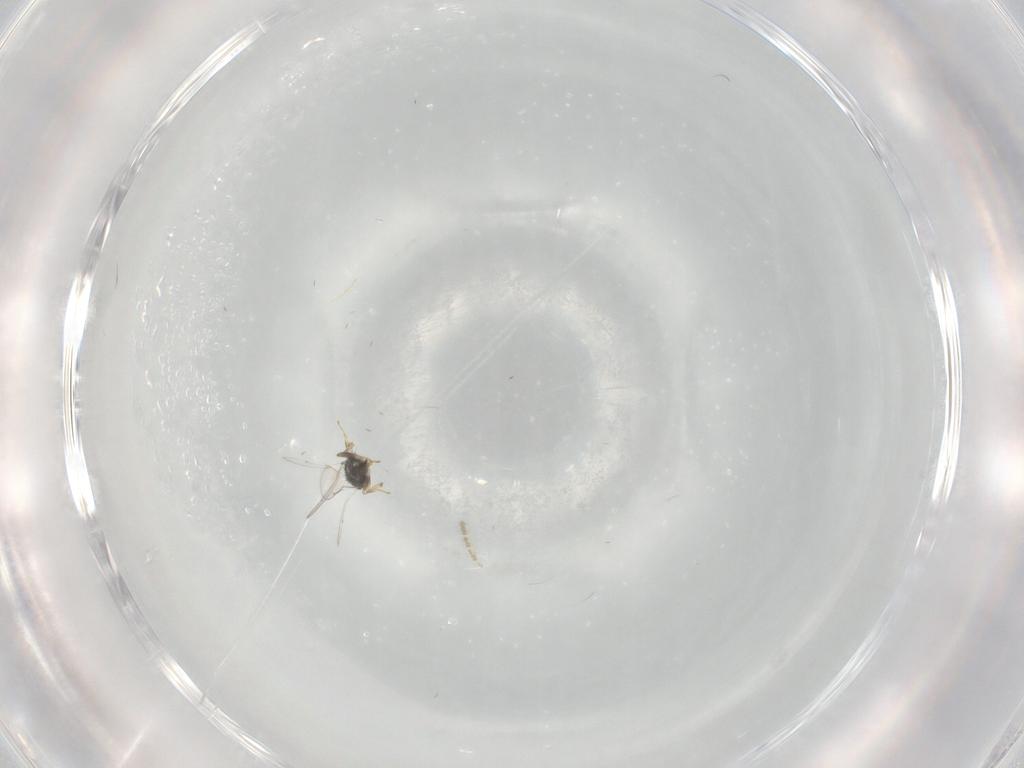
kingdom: Animalia
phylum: Arthropoda
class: Insecta
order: Hymenoptera
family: Aphelinidae
